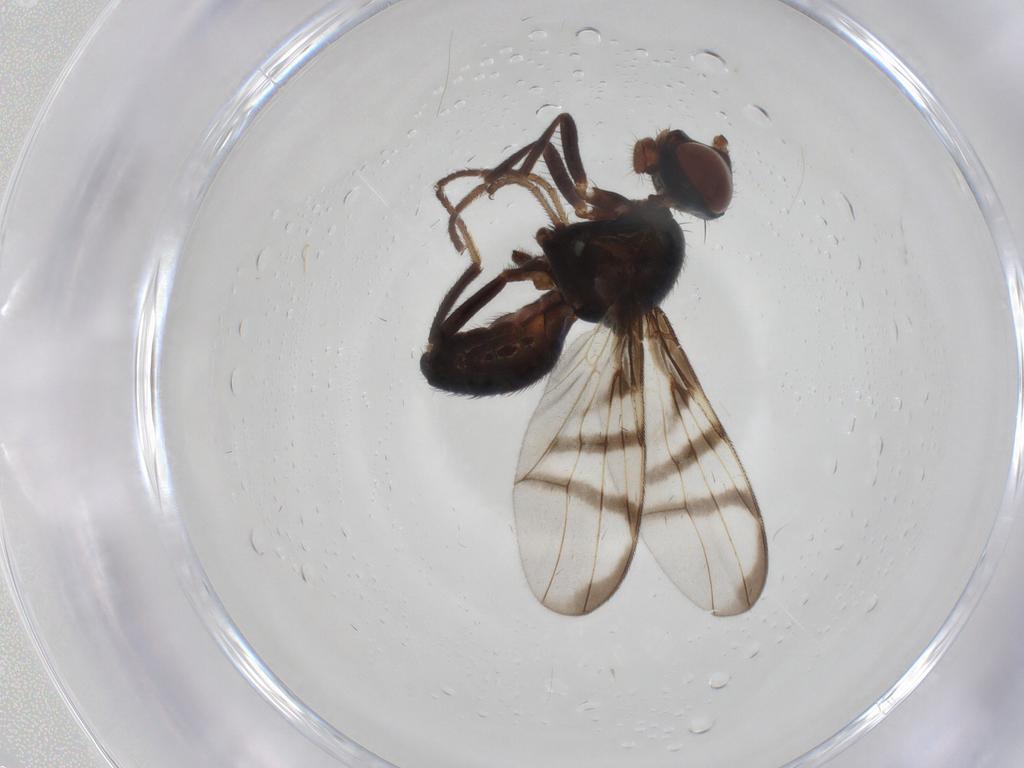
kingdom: Animalia
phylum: Arthropoda
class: Insecta
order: Diptera
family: Chironomidae
